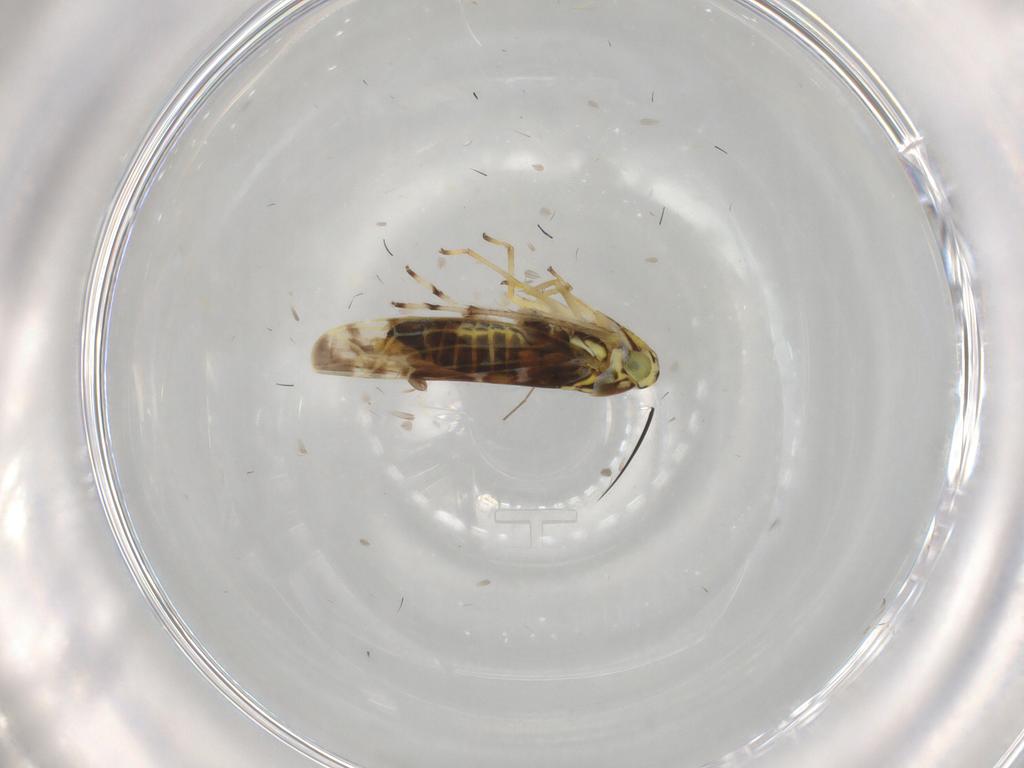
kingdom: Animalia
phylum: Arthropoda
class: Insecta
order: Hemiptera
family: Cicadellidae
